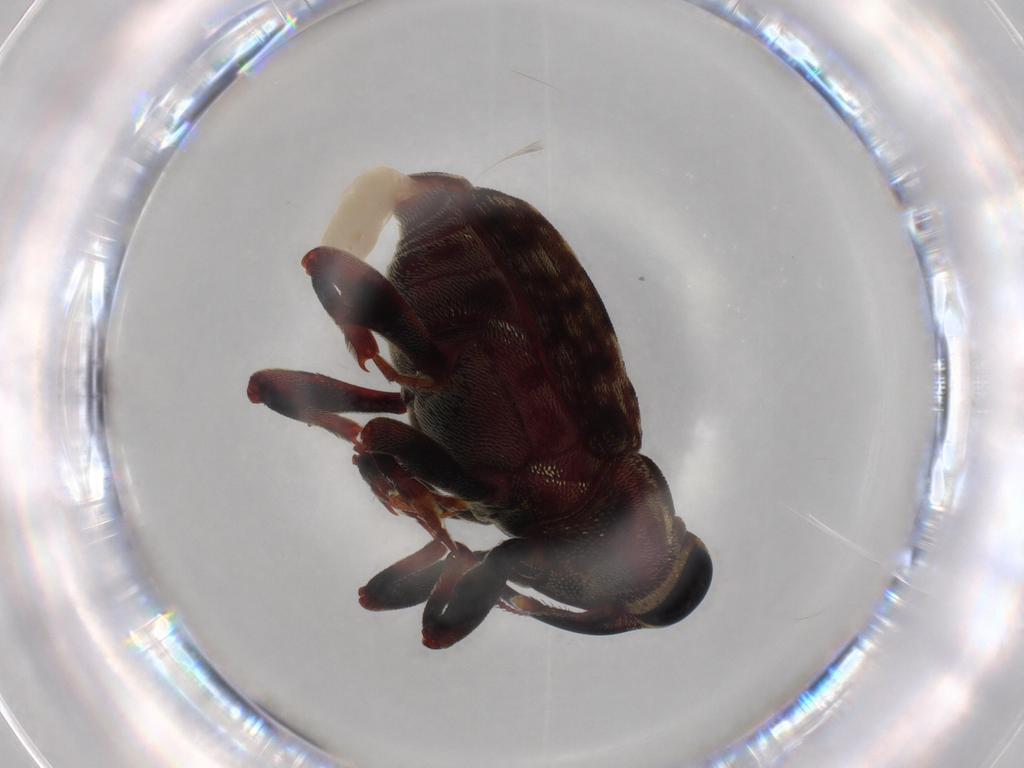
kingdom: Animalia
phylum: Arthropoda
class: Insecta
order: Coleoptera
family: Curculionidae
